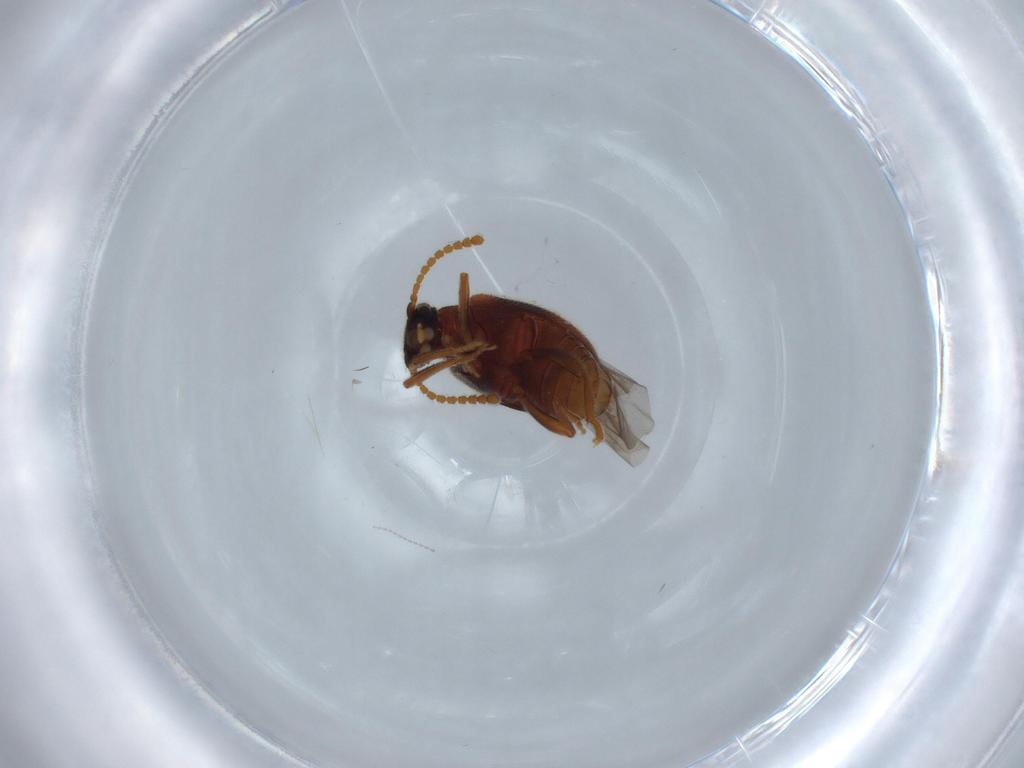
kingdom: Animalia
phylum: Arthropoda
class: Insecta
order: Coleoptera
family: Aderidae
